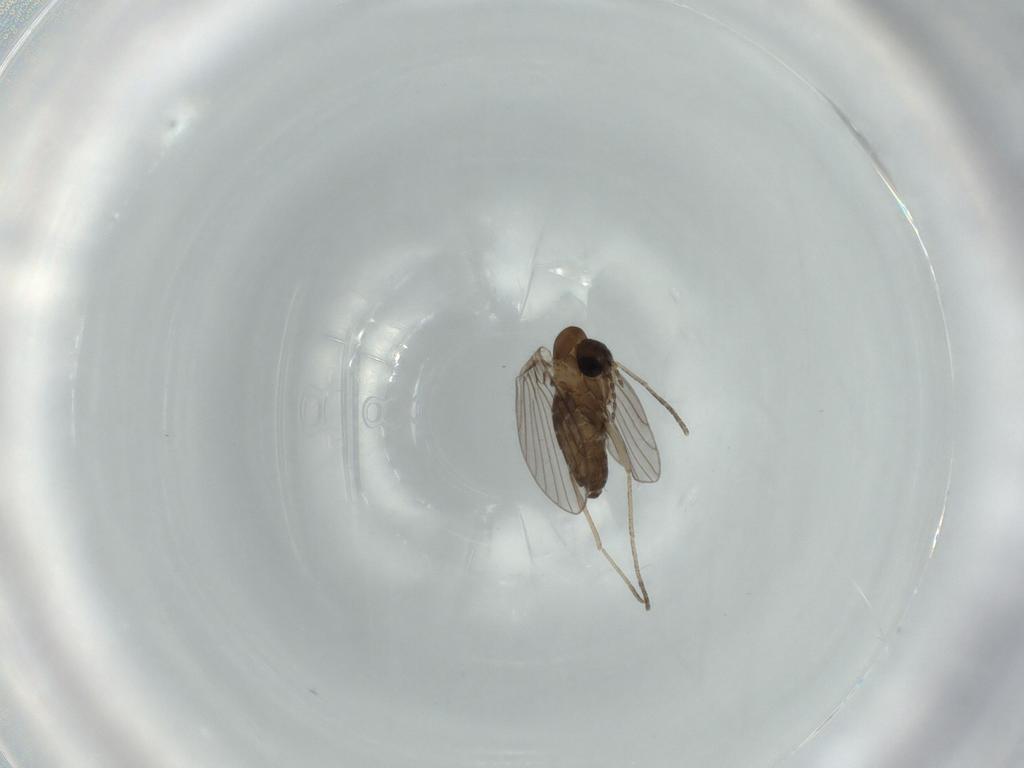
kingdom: Animalia
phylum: Arthropoda
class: Insecta
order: Diptera
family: Psychodidae
